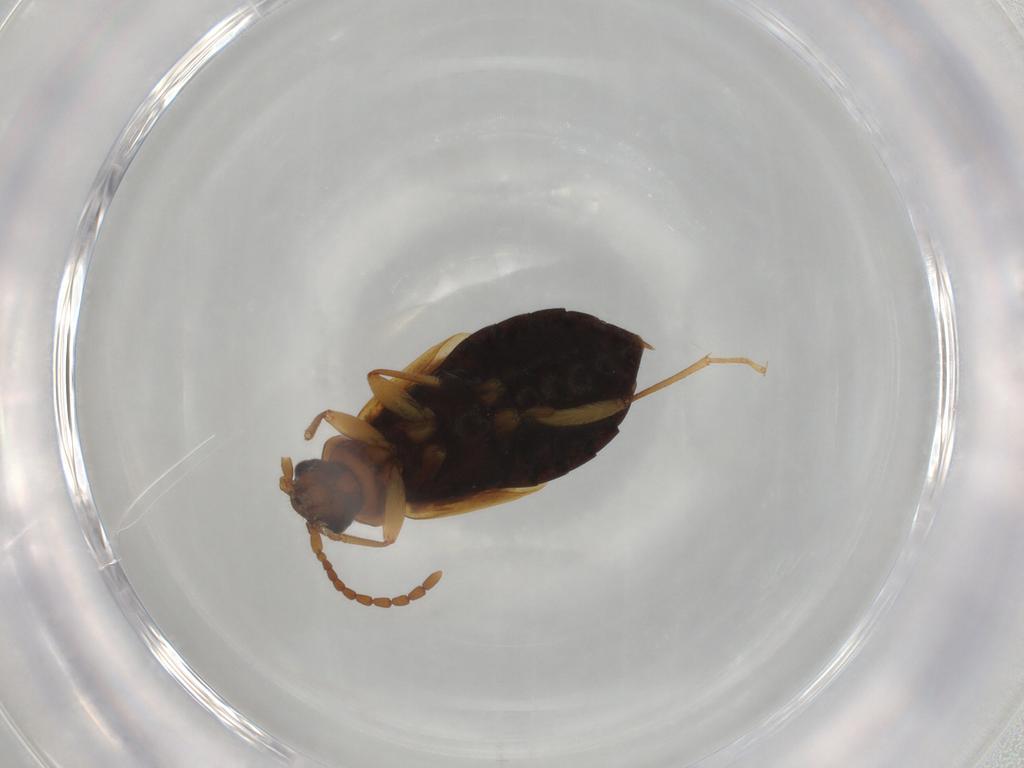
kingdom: Animalia
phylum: Arthropoda
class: Insecta
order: Coleoptera
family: Staphylinidae
